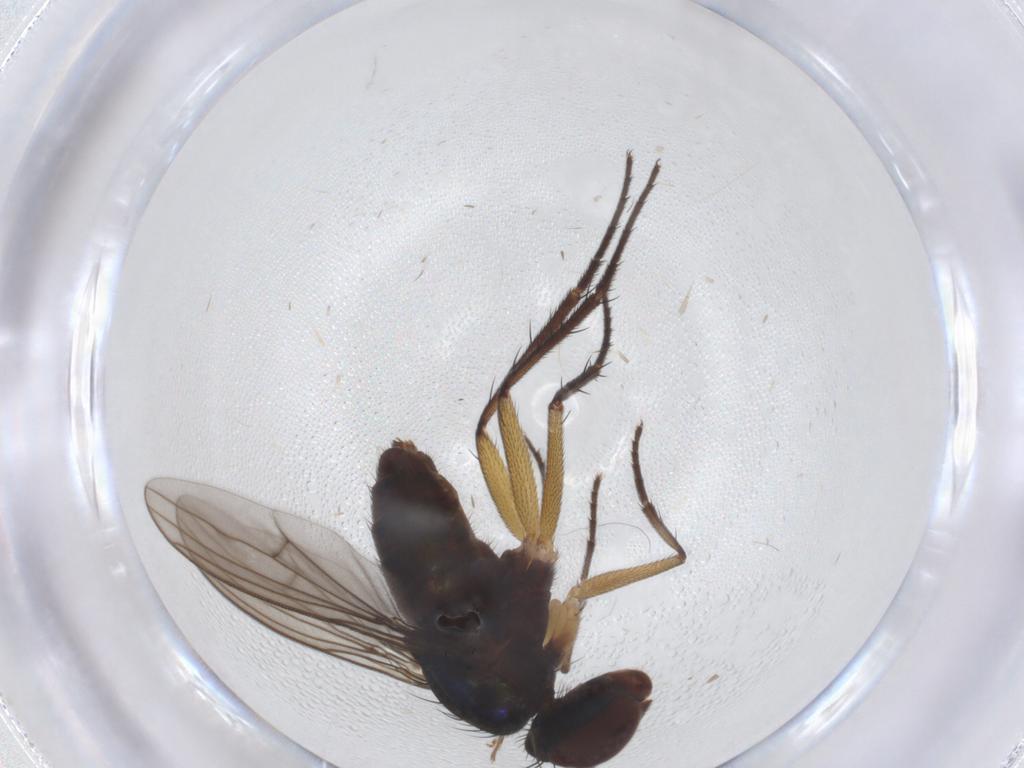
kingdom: Animalia
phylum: Arthropoda
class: Insecta
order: Diptera
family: Dolichopodidae
